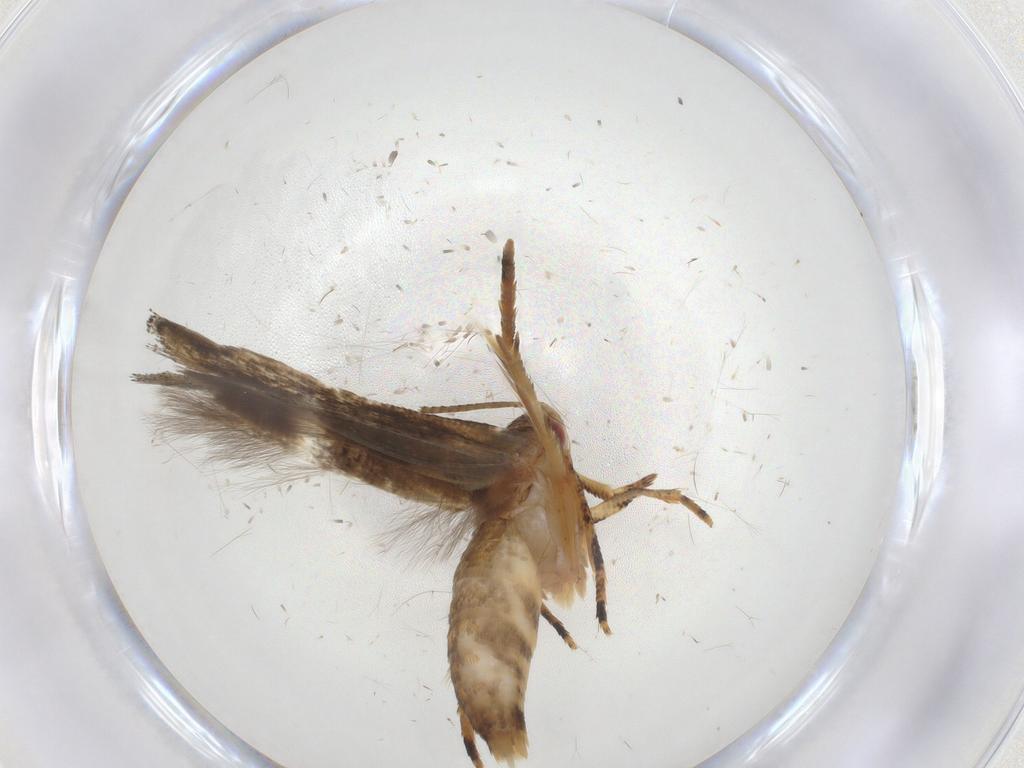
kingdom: Animalia
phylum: Arthropoda
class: Insecta
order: Lepidoptera
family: Tineidae
